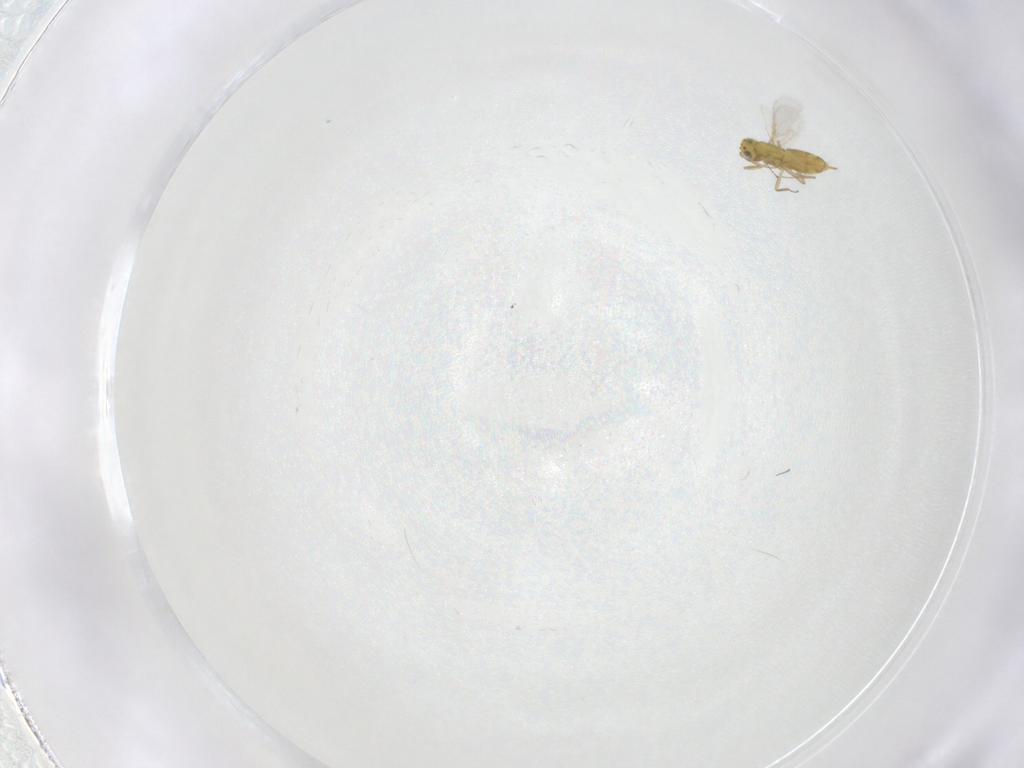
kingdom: Animalia
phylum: Arthropoda
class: Insecta
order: Hymenoptera
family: Aphelinidae
